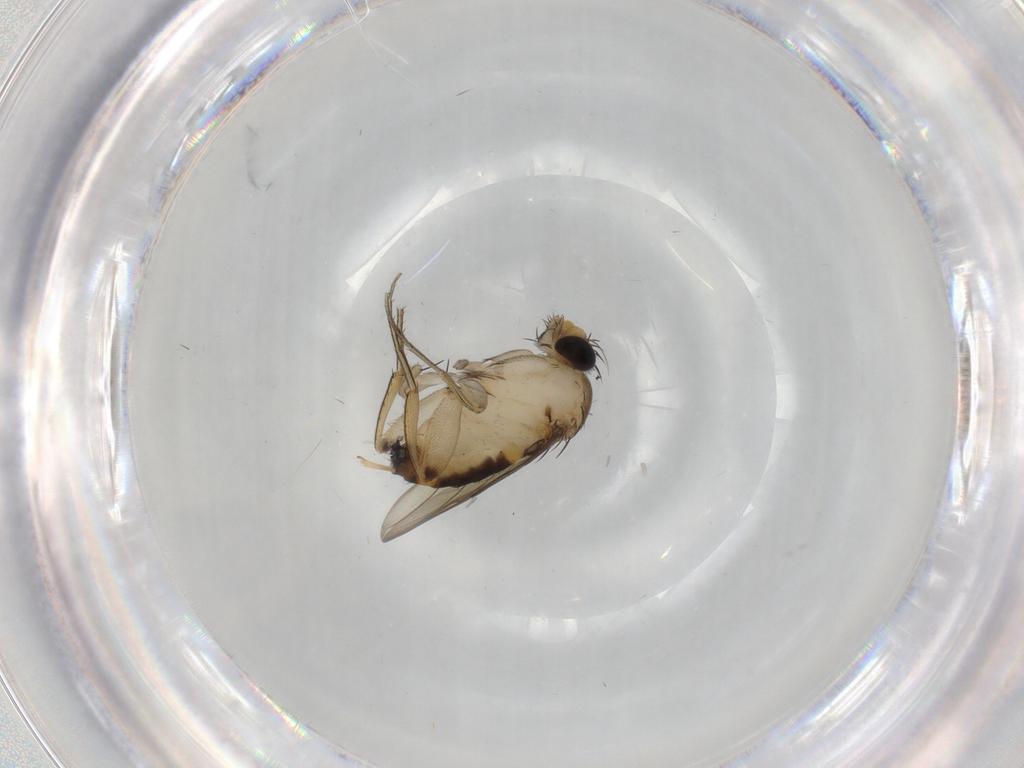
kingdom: Animalia
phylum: Arthropoda
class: Insecta
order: Diptera
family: Phoridae
